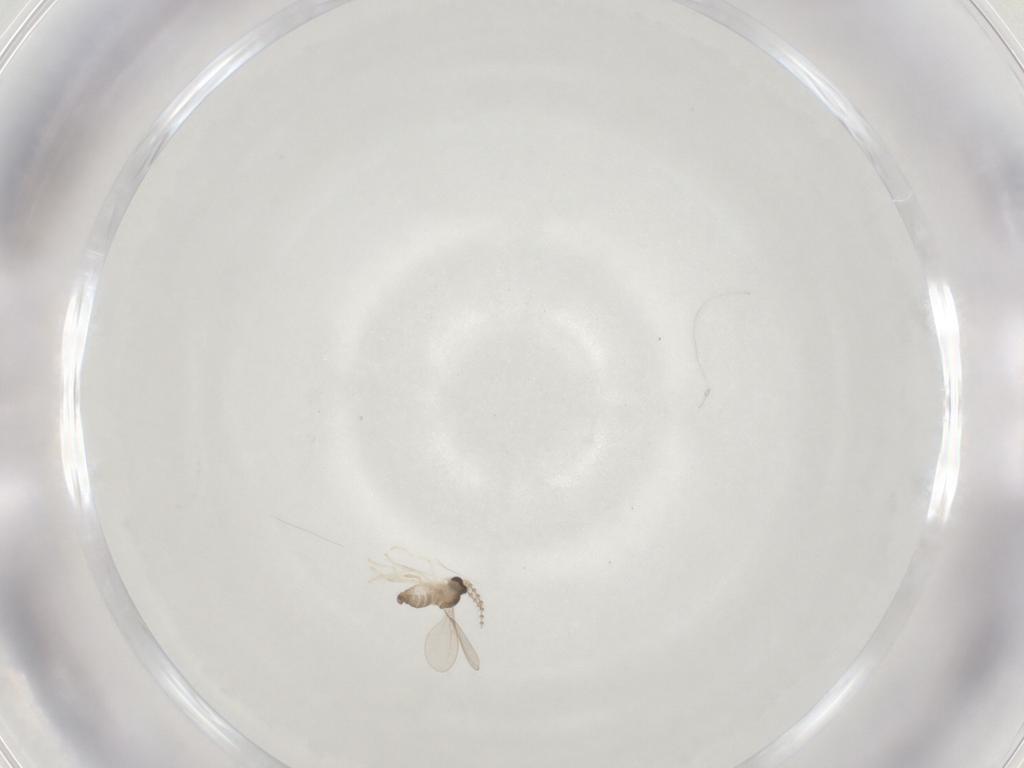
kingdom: Animalia
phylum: Arthropoda
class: Insecta
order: Diptera
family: Cecidomyiidae
